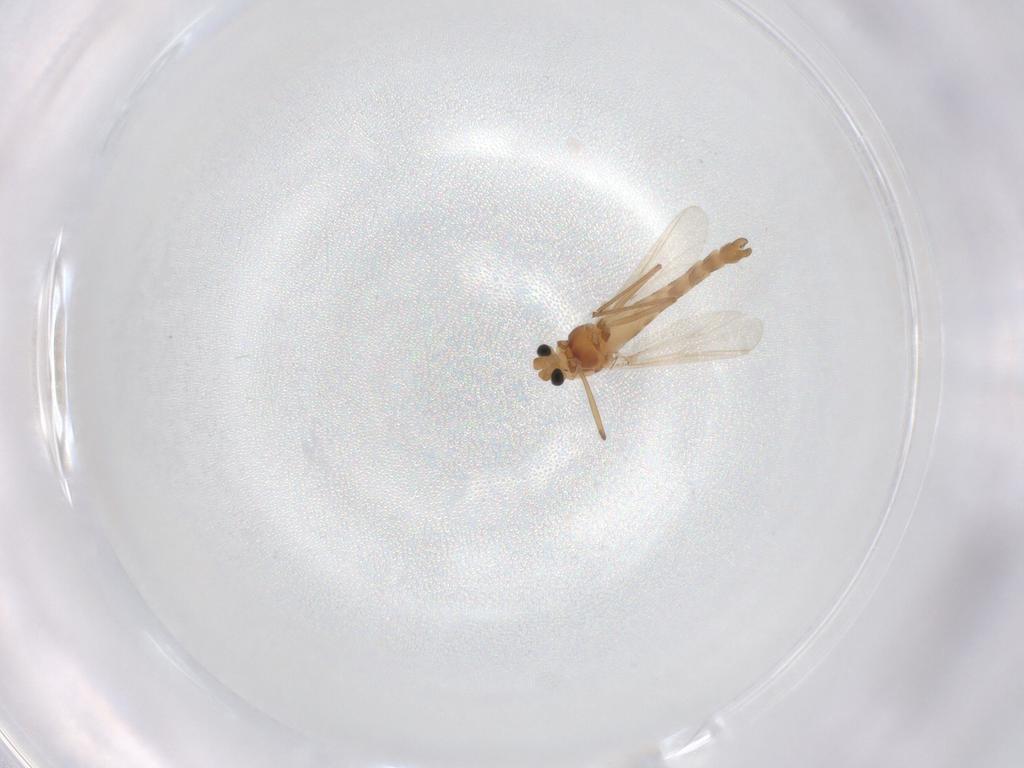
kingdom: Animalia
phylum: Arthropoda
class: Insecta
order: Diptera
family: Chironomidae
